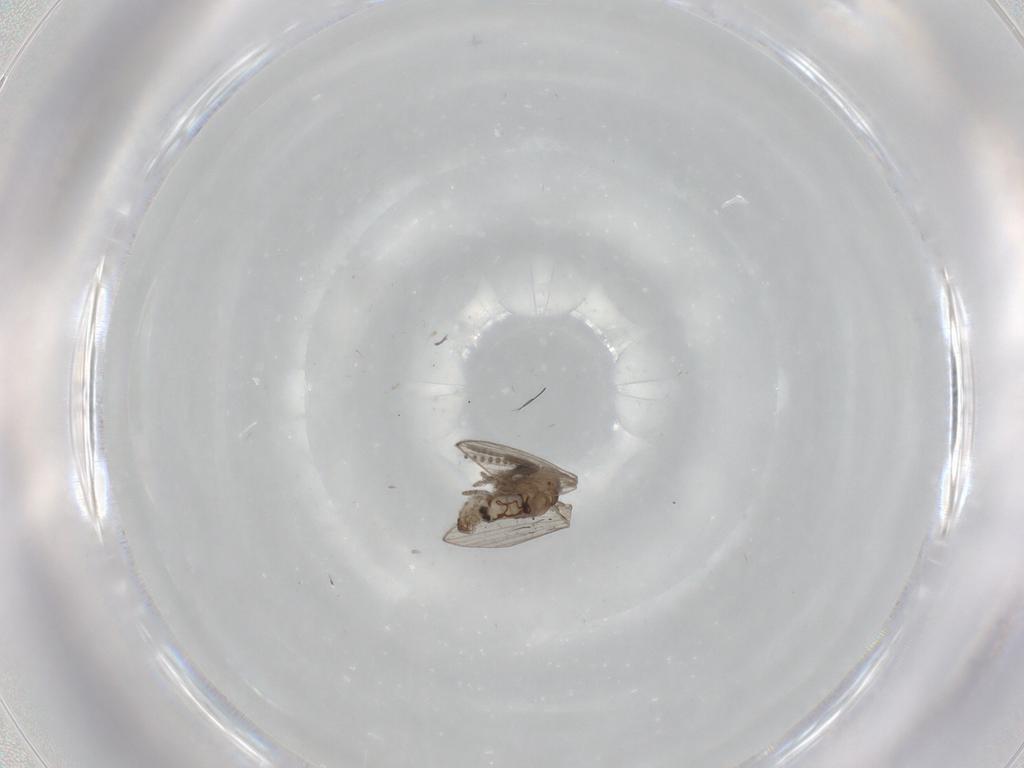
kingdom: Animalia
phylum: Arthropoda
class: Insecta
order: Diptera
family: Psychodidae
